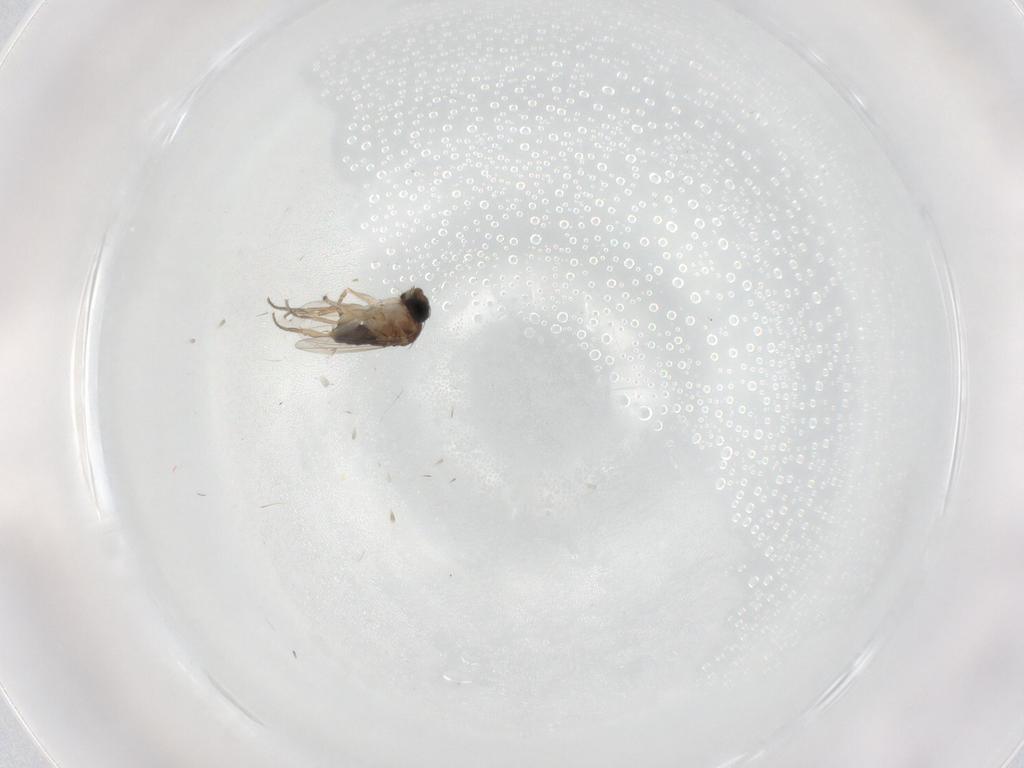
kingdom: Animalia
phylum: Arthropoda
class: Insecta
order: Diptera
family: Phoridae
